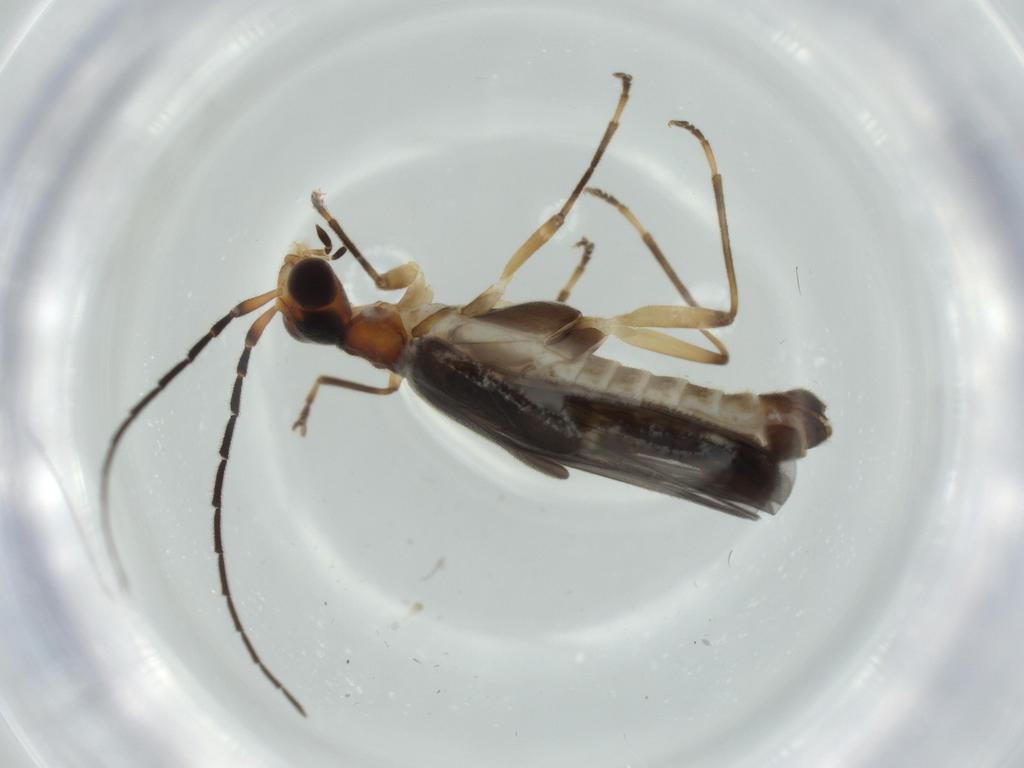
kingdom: Animalia
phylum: Arthropoda
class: Insecta
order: Coleoptera
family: Cantharidae
